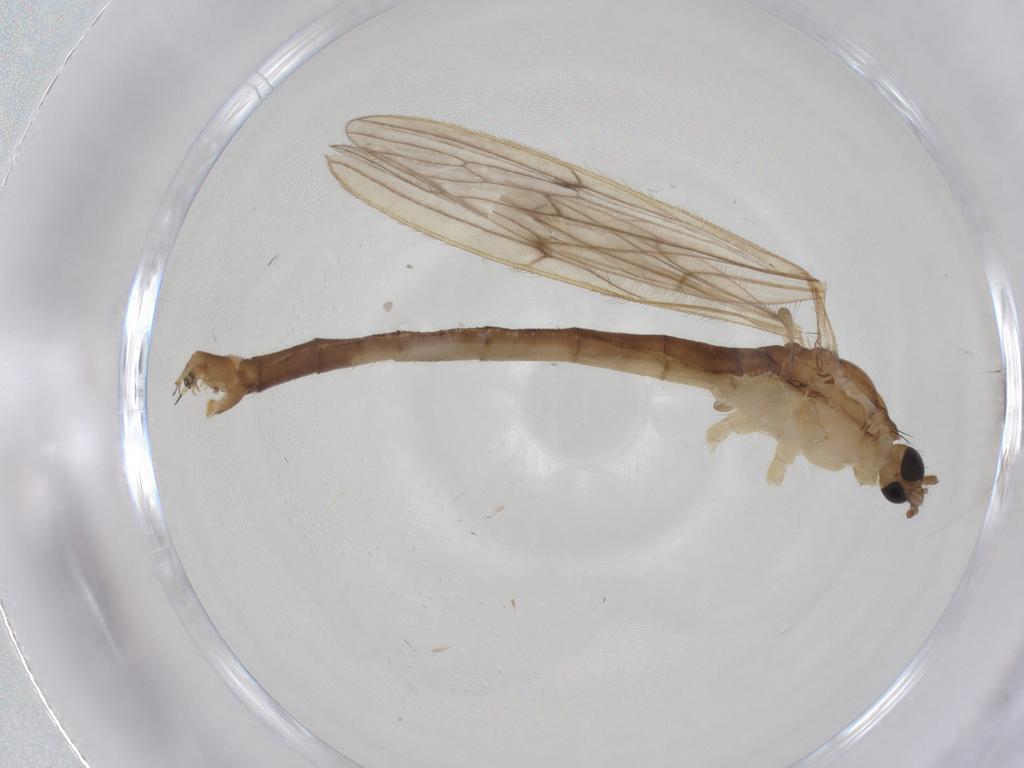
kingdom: Animalia
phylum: Arthropoda
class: Insecta
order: Diptera
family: Limoniidae
